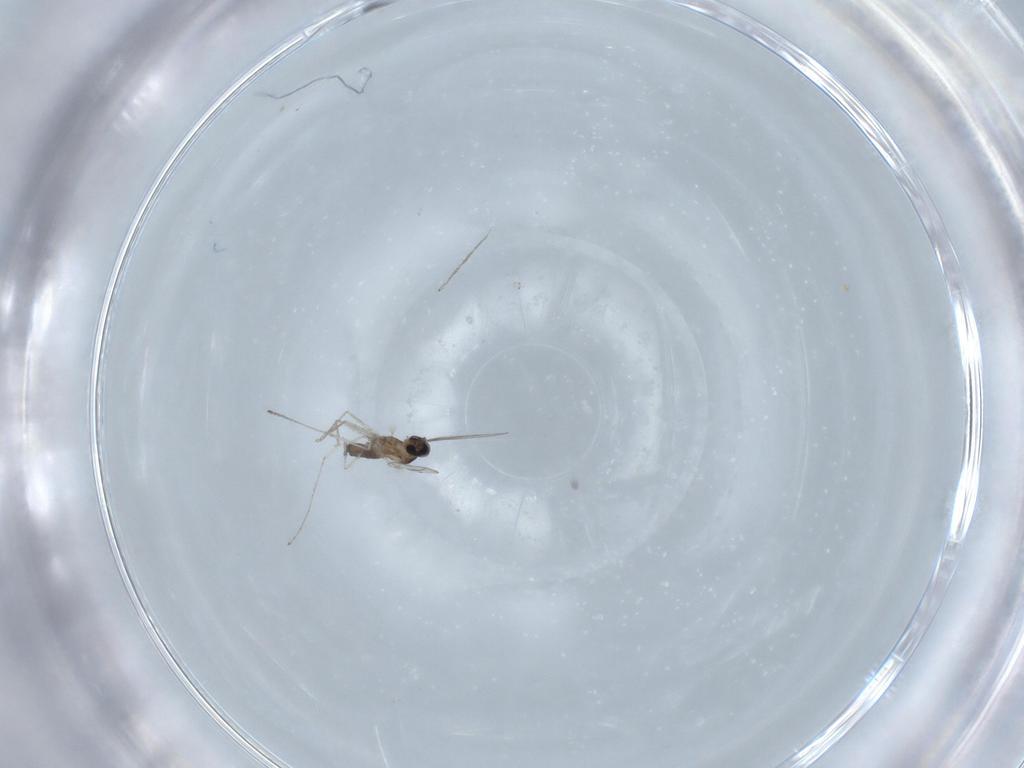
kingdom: Animalia
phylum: Arthropoda
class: Insecta
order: Diptera
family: Cecidomyiidae
